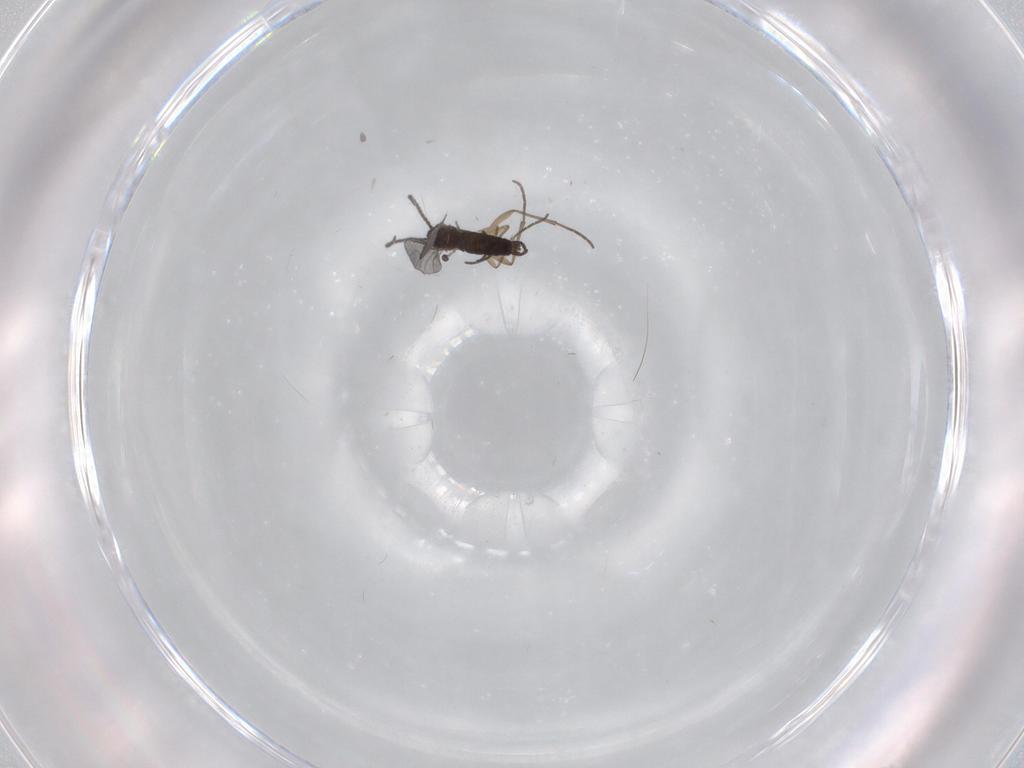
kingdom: Animalia
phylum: Arthropoda
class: Insecta
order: Diptera
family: Sciaridae
